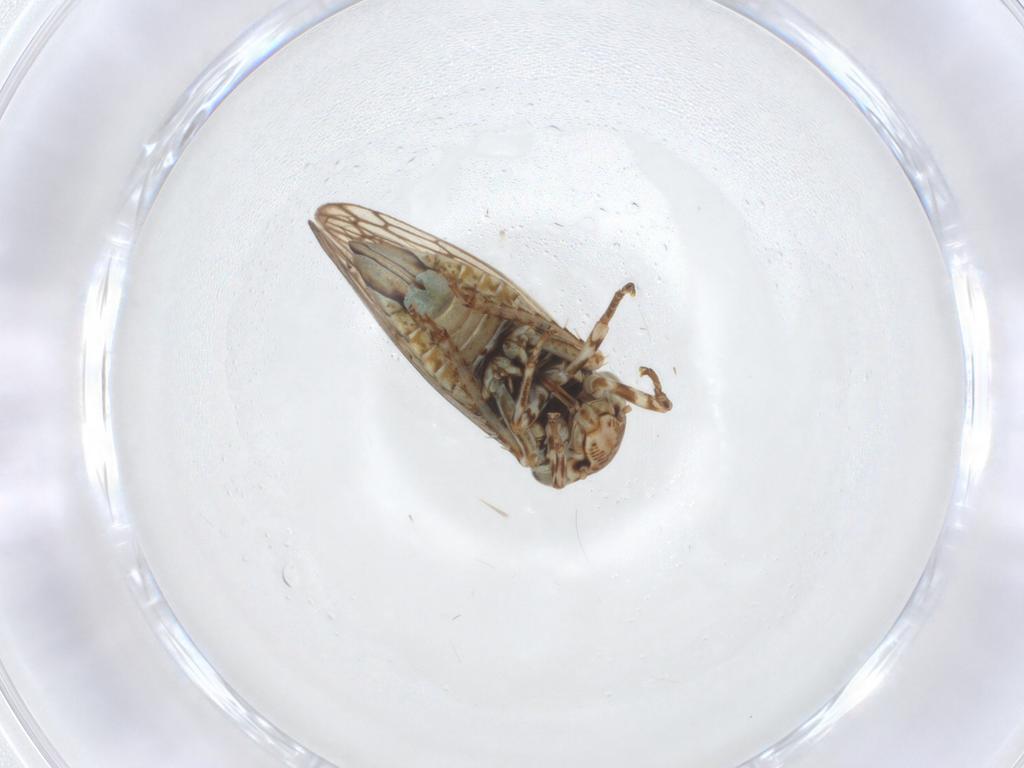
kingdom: Animalia
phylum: Arthropoda
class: Insecta
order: Hemiptera
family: Cicadellidae
